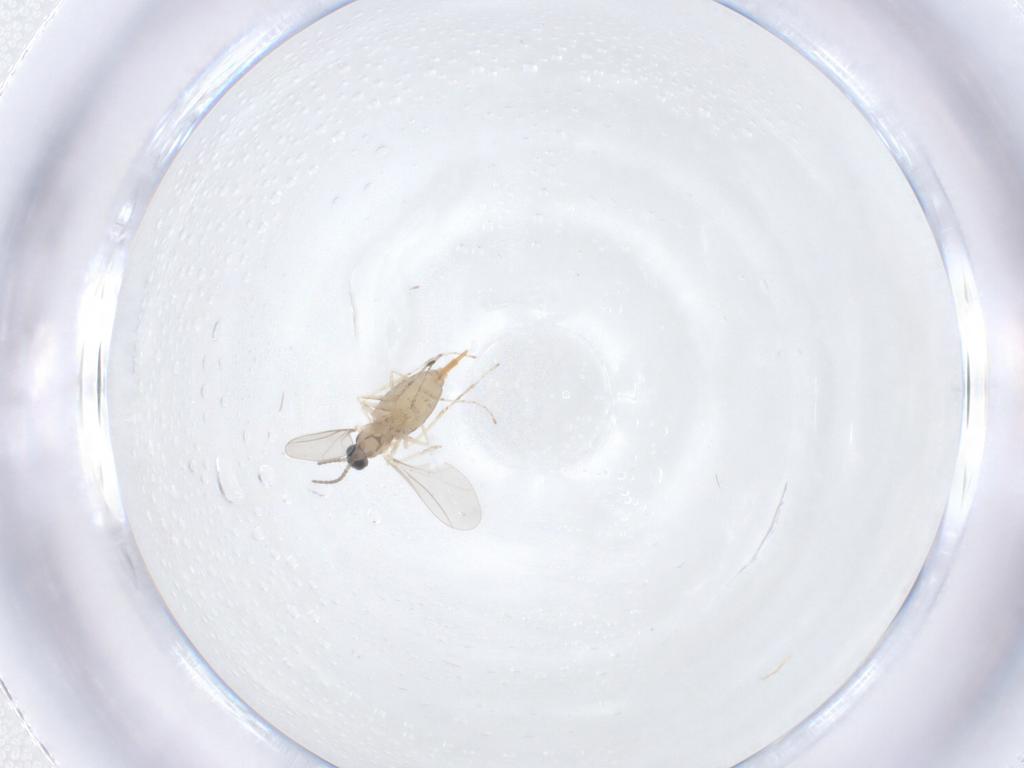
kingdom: Animalia
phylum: Arthropoda
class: Insecta
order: Diptera
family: Cecidomyiidae
